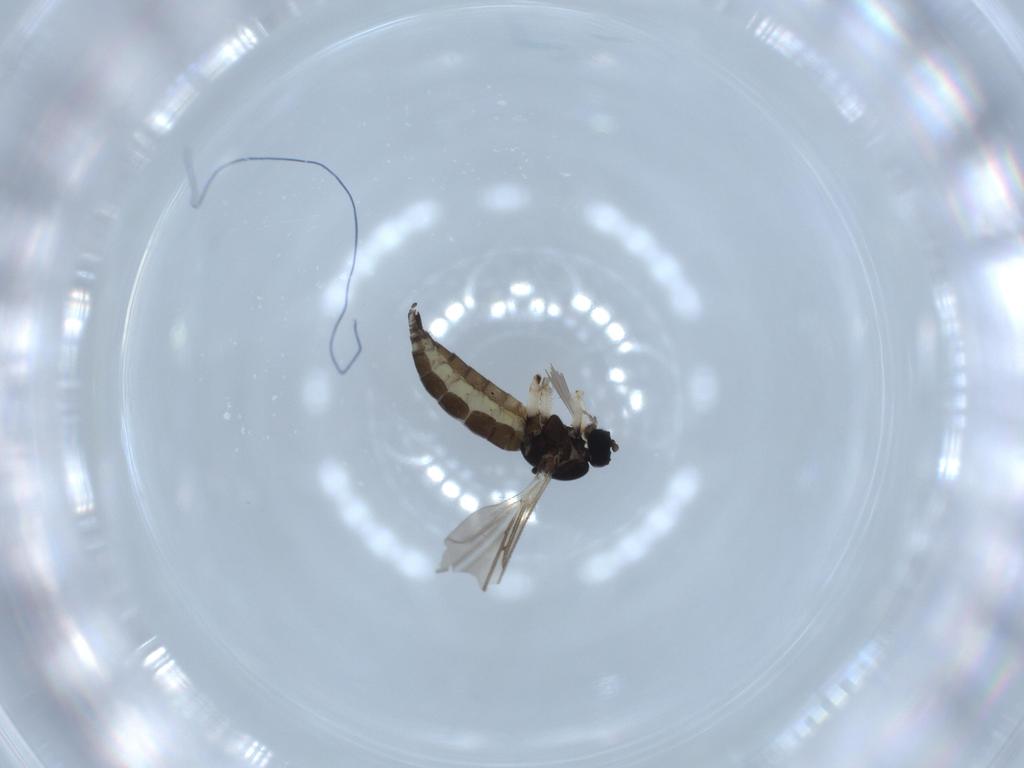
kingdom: Animalia
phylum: Arthropoda
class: Insecta
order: Diptera
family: Sciaridae
